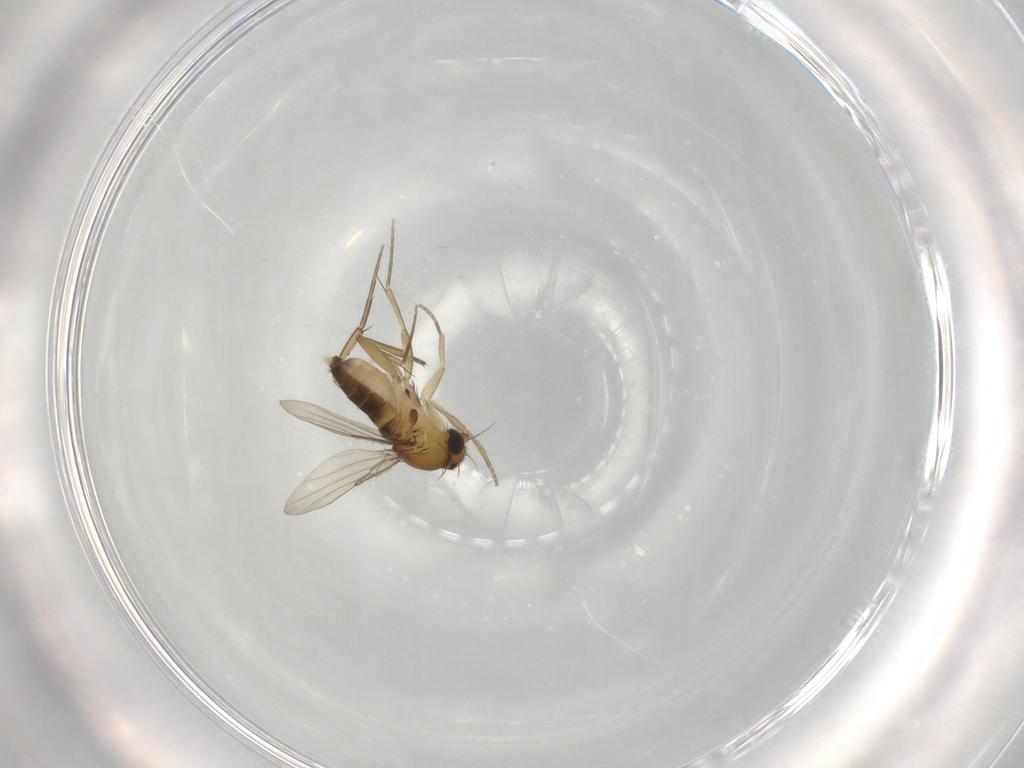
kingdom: Animalia
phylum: Arthropoda
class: Insecta
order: Diptera
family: Phoridae
